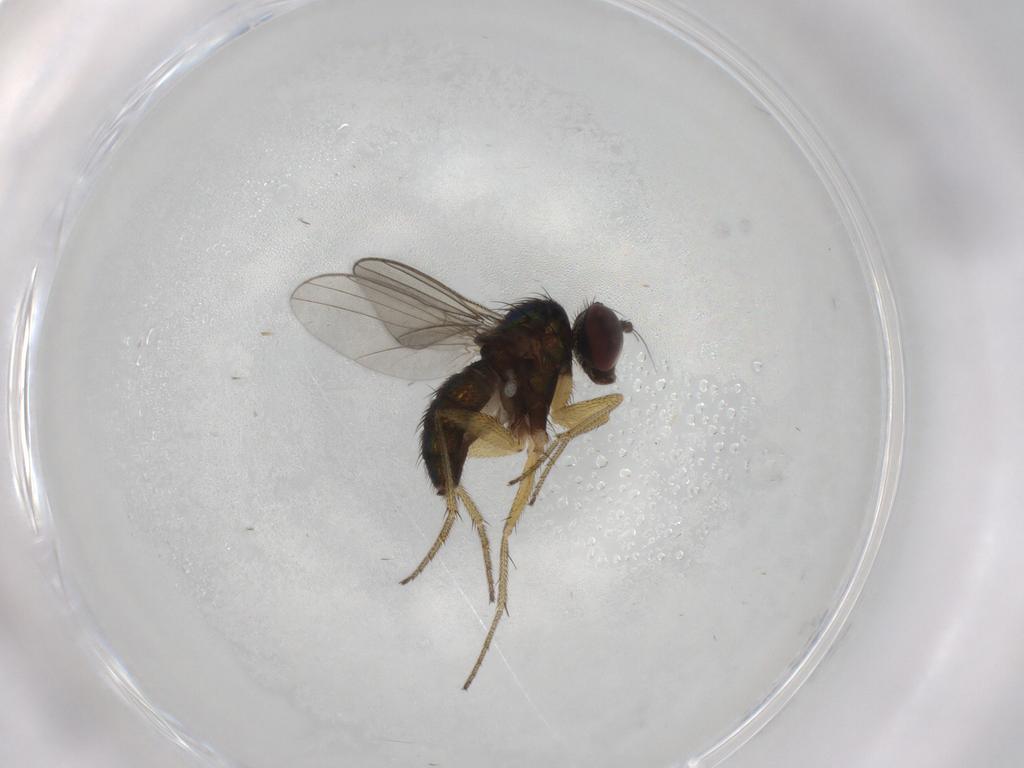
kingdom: Animalia
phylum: Arthropoda
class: Insecta
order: Diptera
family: Dolichopodidae
